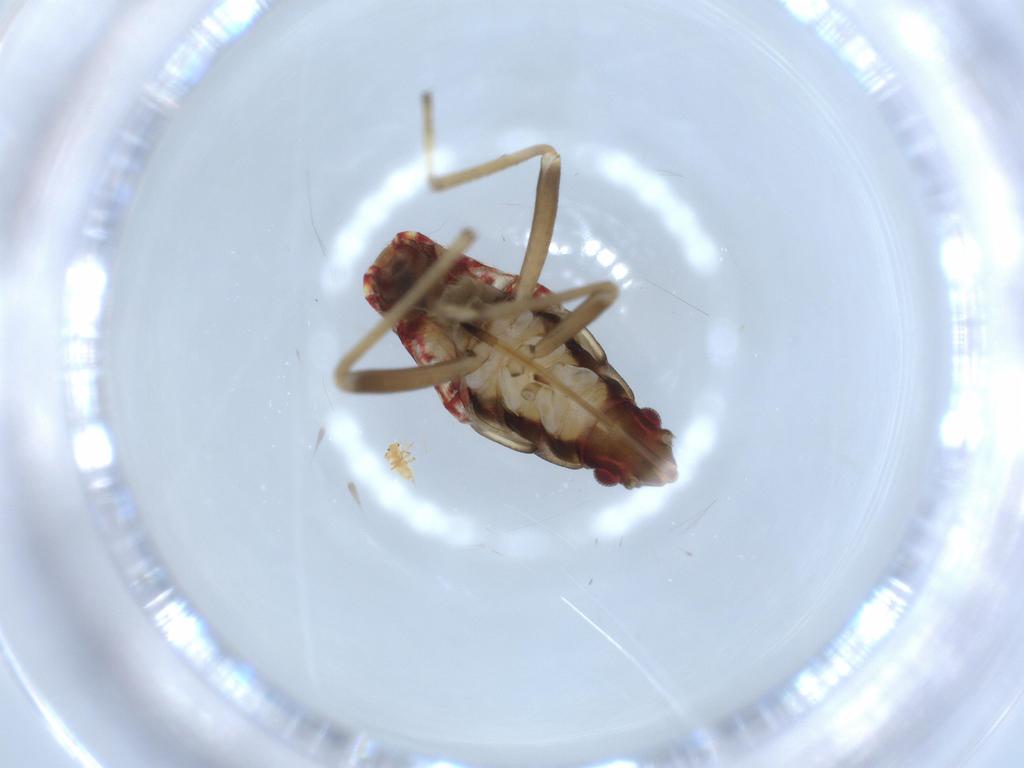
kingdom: Animalia
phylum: Arthropoda
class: Insecta
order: Hemiptera
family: Rhyparochromidae
